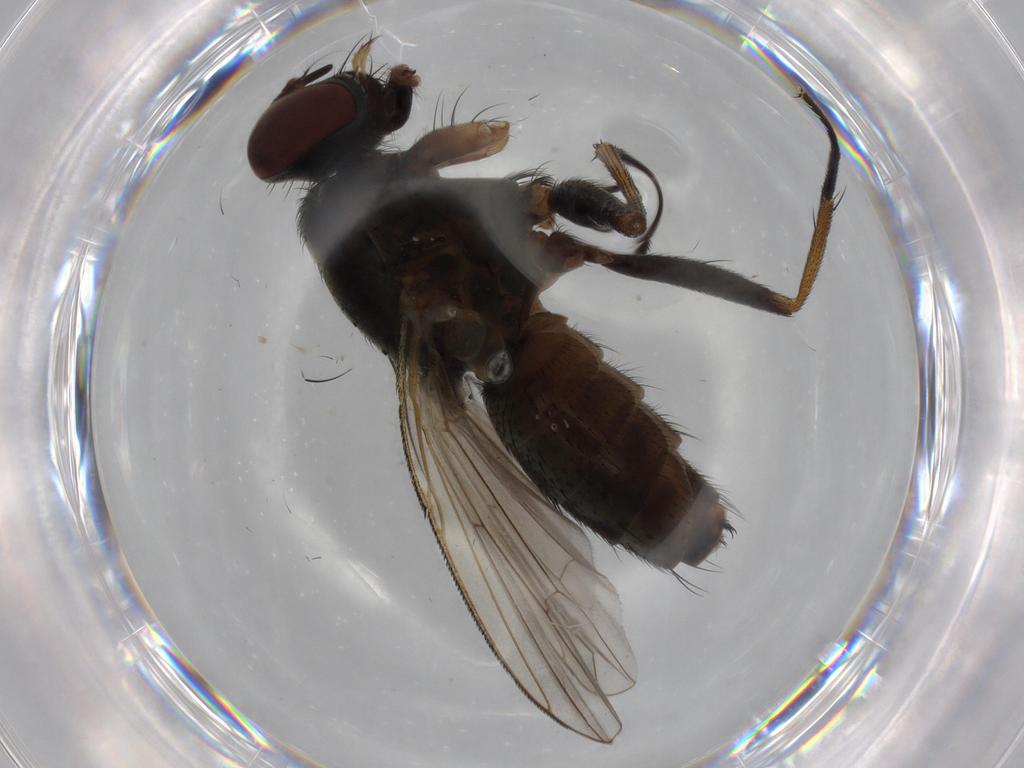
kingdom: Animalia
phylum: Arthropoda
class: Insecta
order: Diptera
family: Muscidae
